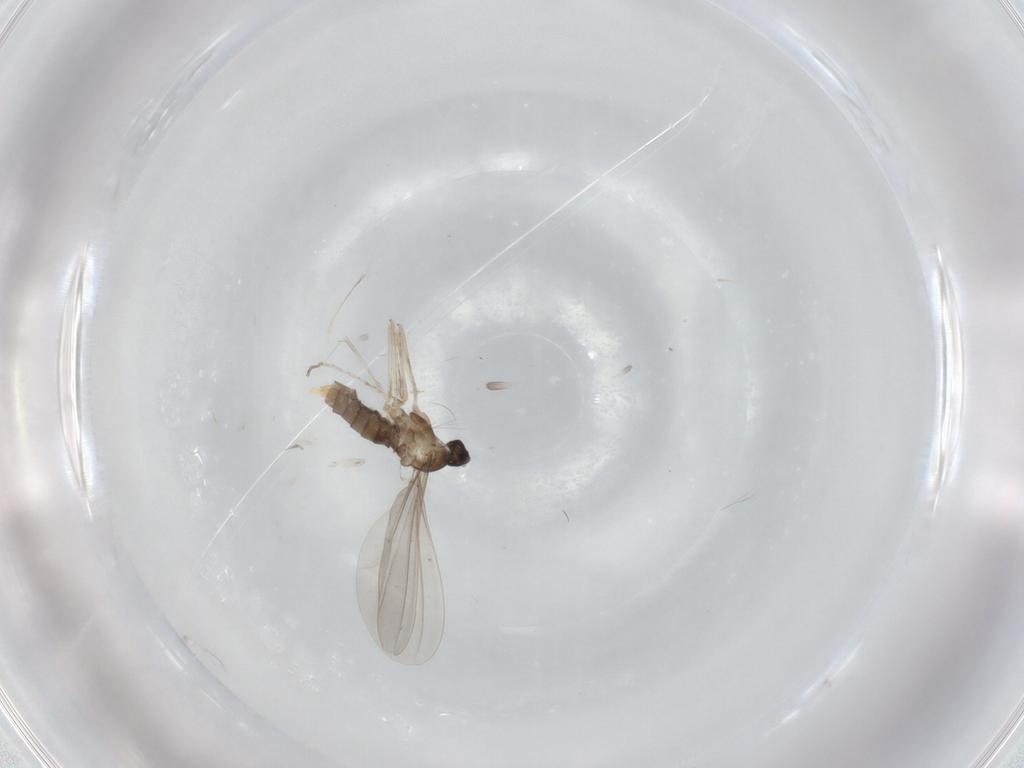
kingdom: Animalia
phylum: Arthropoda
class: Insecta
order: Diptera
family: Cecidomyiidae
